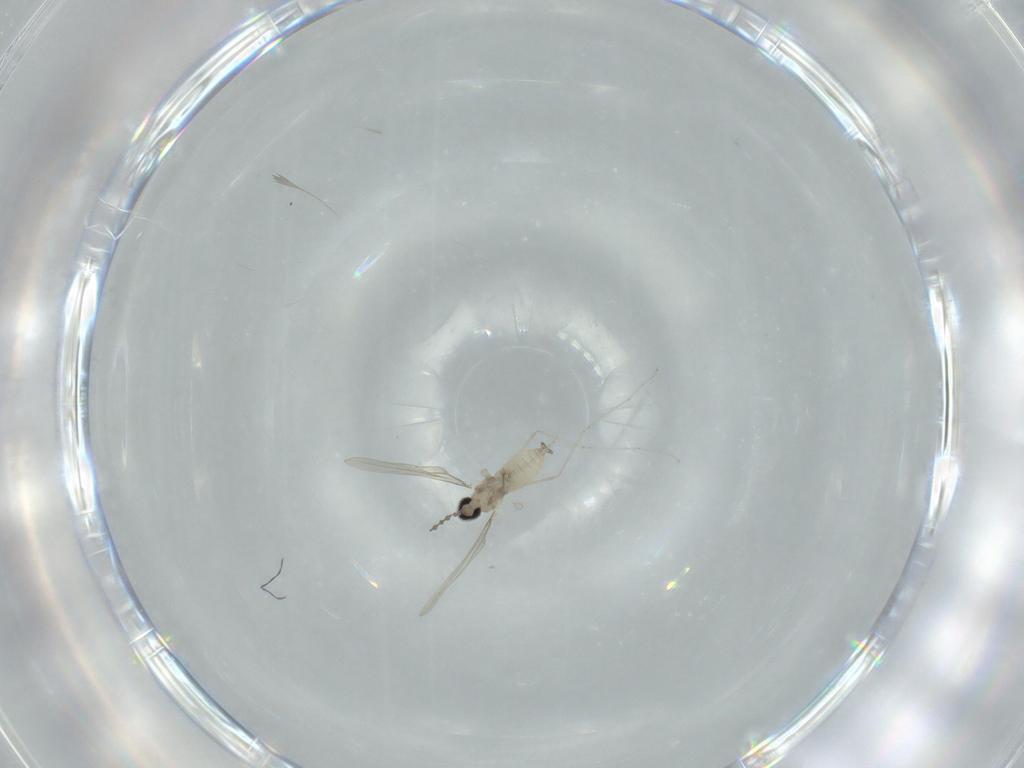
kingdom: Animalia
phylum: Arthropoda
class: Insecta
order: Diptera
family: Cecidomyiidae
